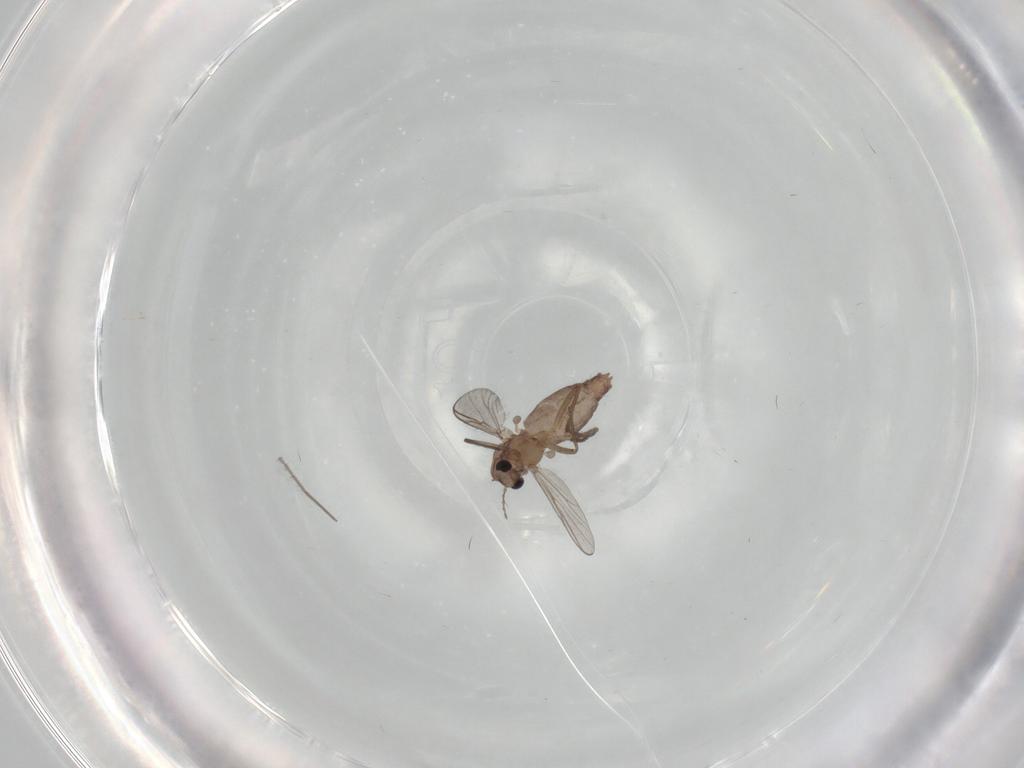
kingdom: Animalia
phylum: Arthropoda
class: Insecta
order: Diptera
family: Chironomidae
